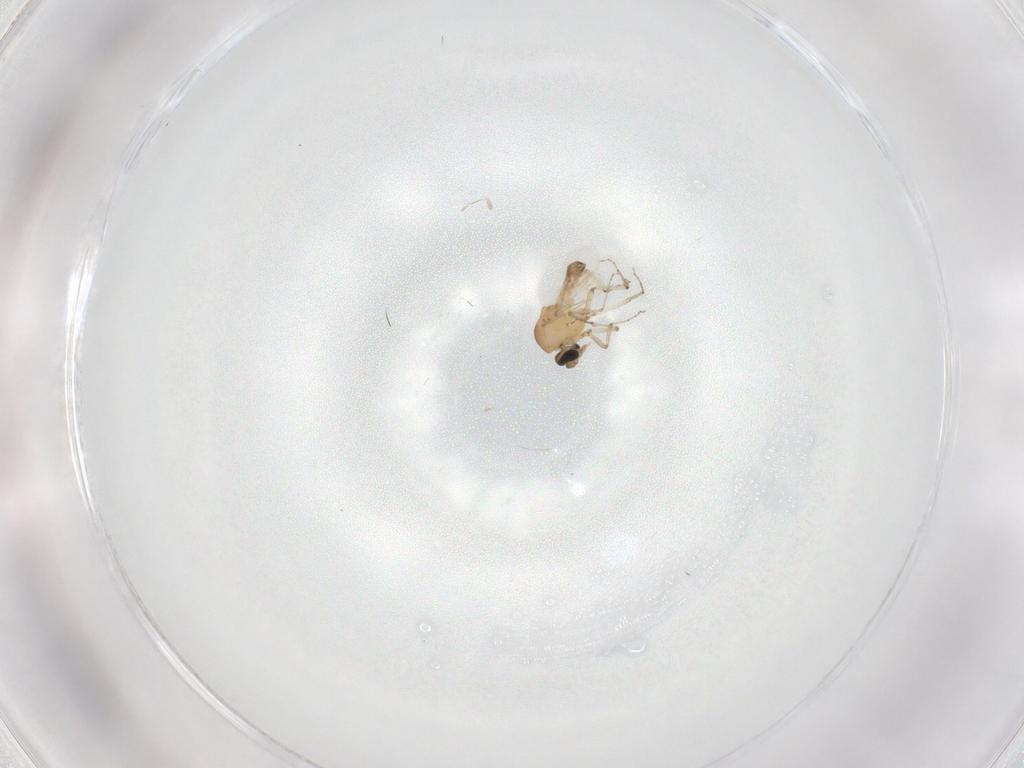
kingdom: Animalia
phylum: Arthropoda
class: Insecta
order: Diptera
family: Ceratopogonidae
